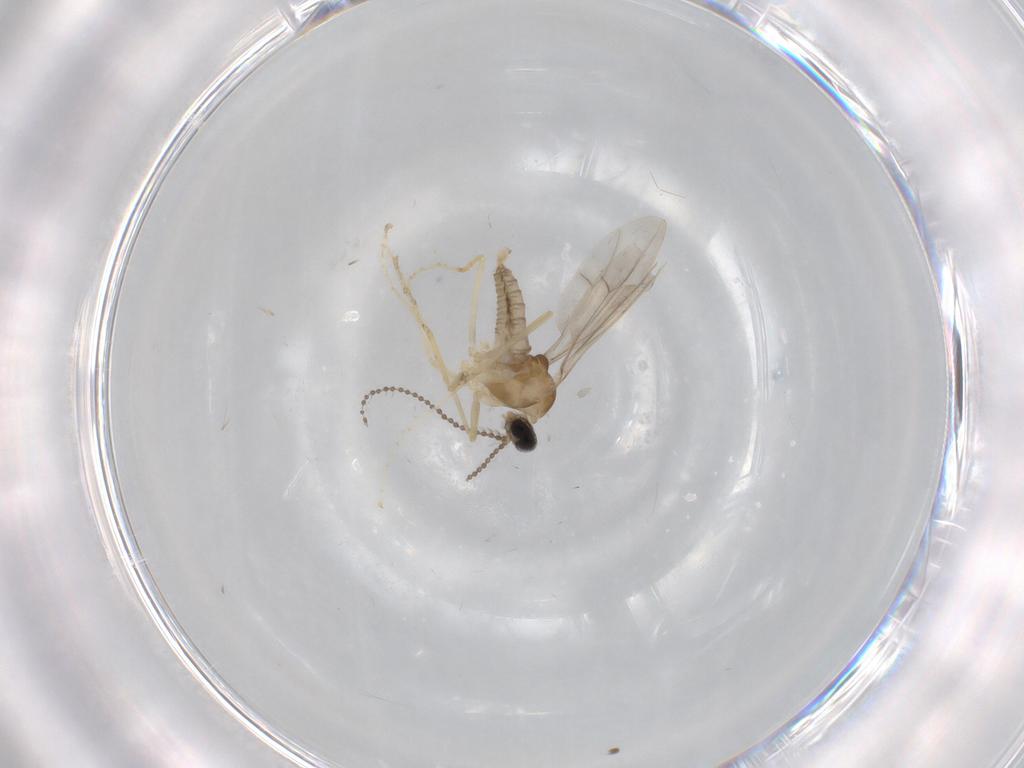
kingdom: Animalia
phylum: Arthropoda
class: Insecta
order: Diptera
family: Cecidomyiidae
